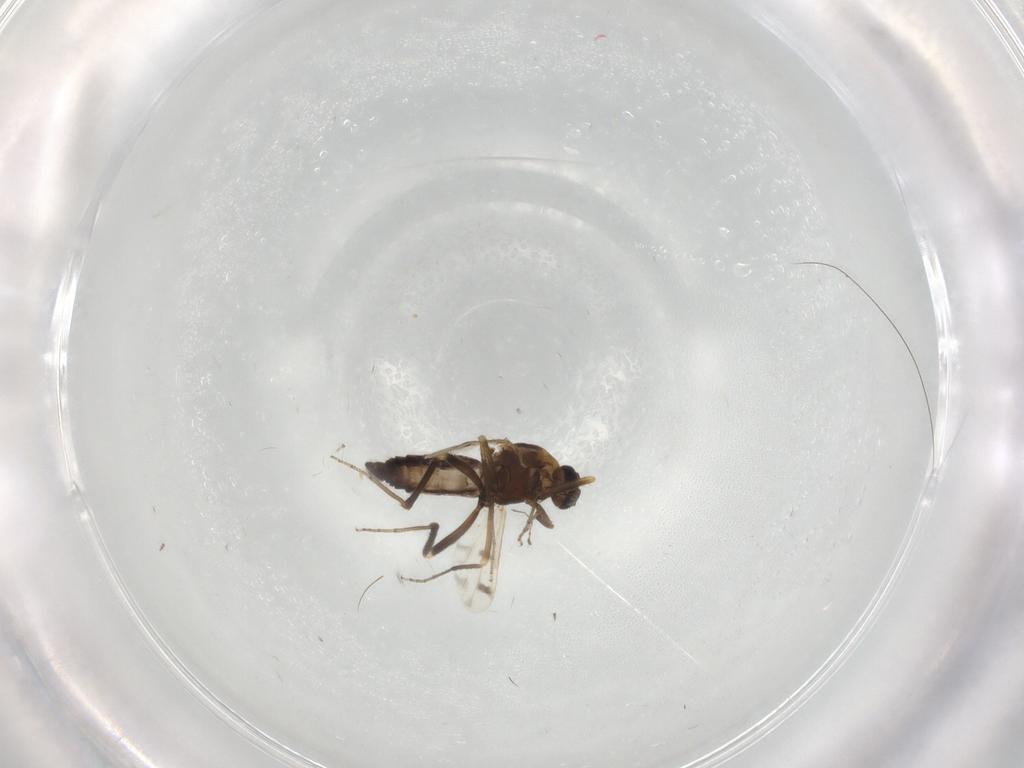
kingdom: Animalia
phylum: Arthropoda
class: Insecta
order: Diptera
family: Ceratopogonidae
